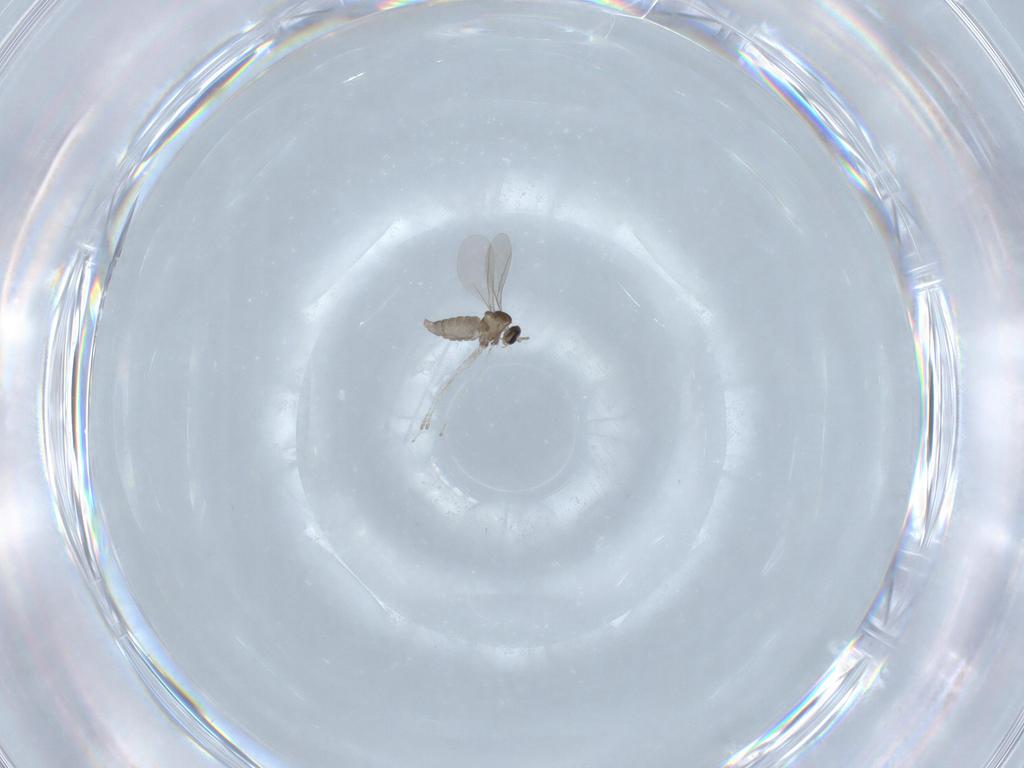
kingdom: Animalia
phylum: Arthropoda
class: Insecta
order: Diptera
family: Cecidomyiidae
